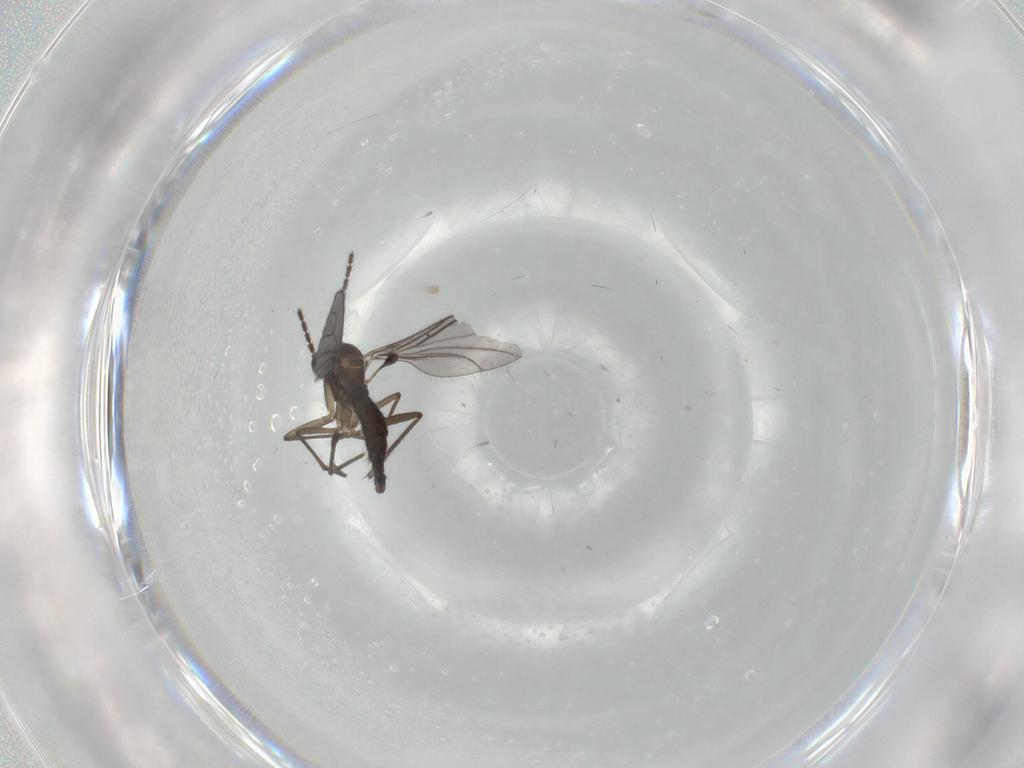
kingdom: Animalia
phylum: Arthropoda
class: Insecta
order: Diptera
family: Sciaridae
